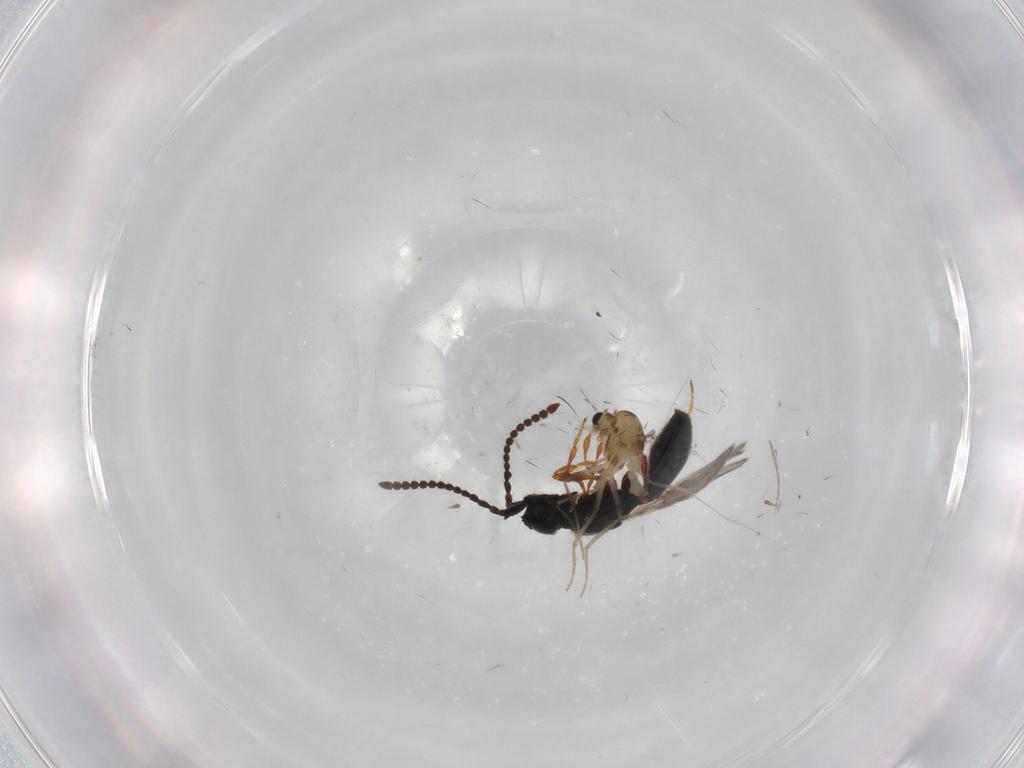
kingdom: Animalia
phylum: Arthropoda
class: Insecta
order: Diptera
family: Chironomidae
